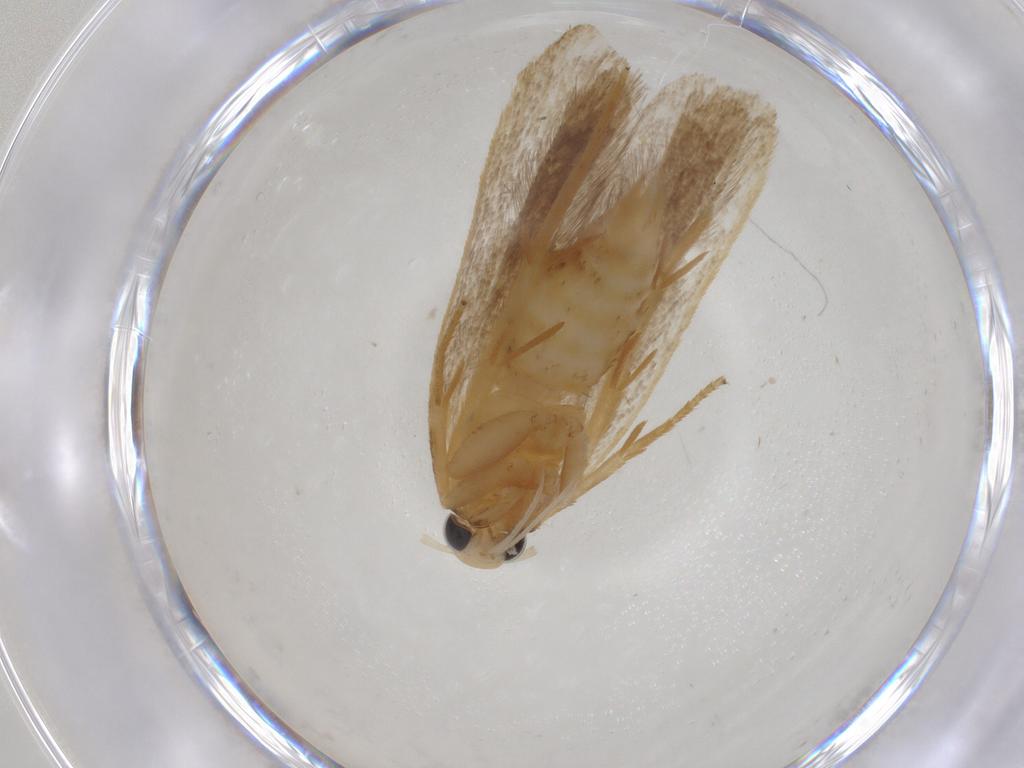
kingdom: Animalia
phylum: Arthropoda
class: Insecta
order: Lepidoptera
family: Gelechiidae
